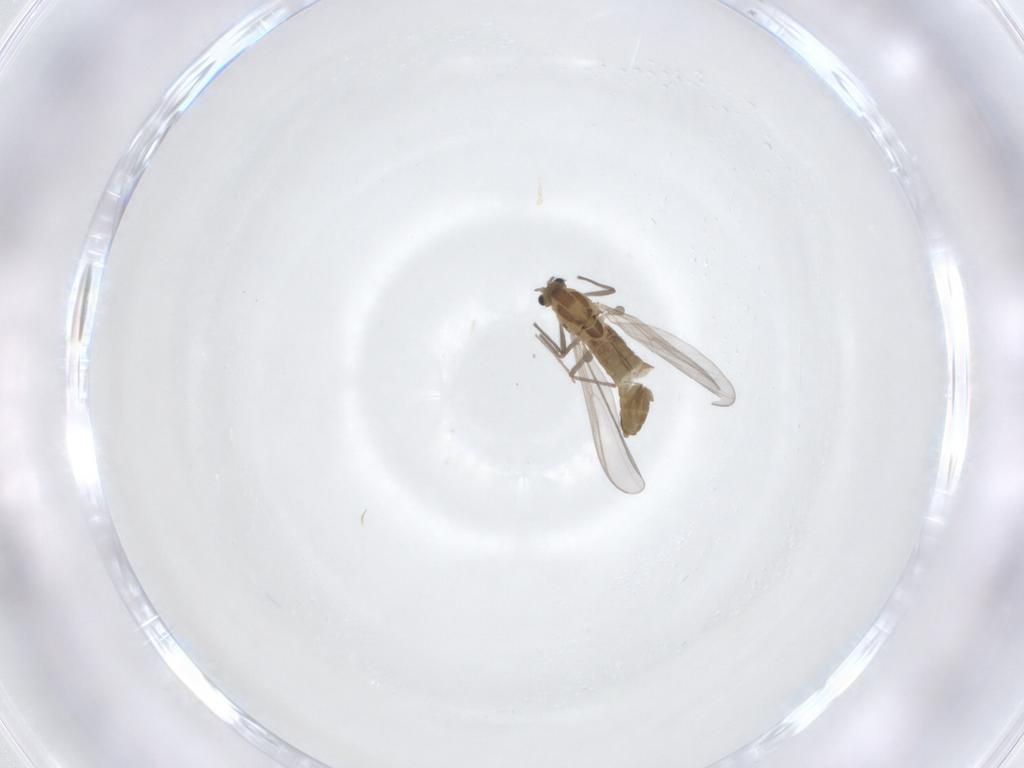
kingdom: Animalia
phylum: Arthropoda
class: Insecta
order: Diptera
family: Chironomidae
